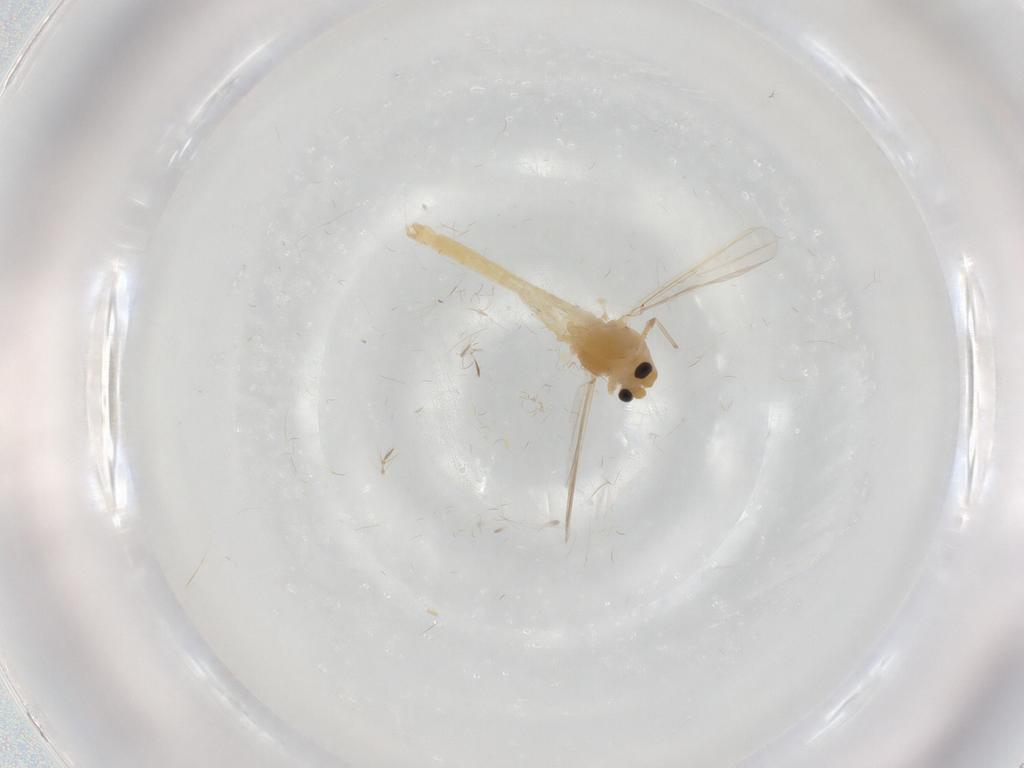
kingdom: Animalia
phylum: Arthropoda
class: Insecta
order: Diptera
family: Chironomidae
